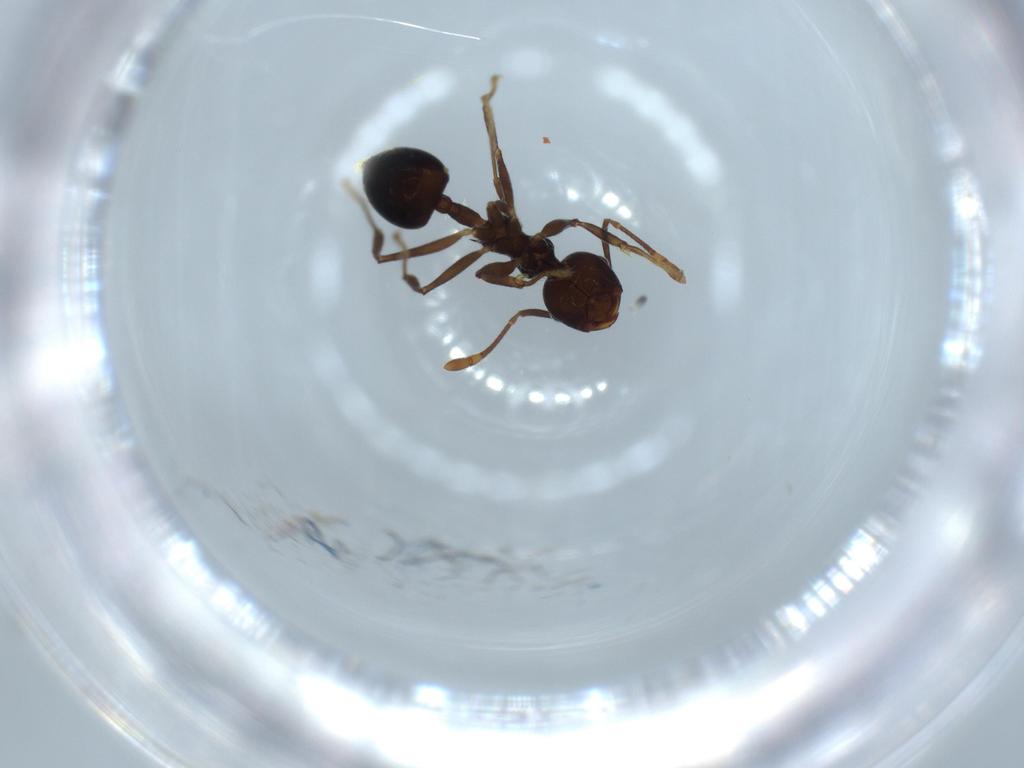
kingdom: Animalia
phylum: Arthropoda
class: Insecta
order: Hymenoptera
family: Formicidae
